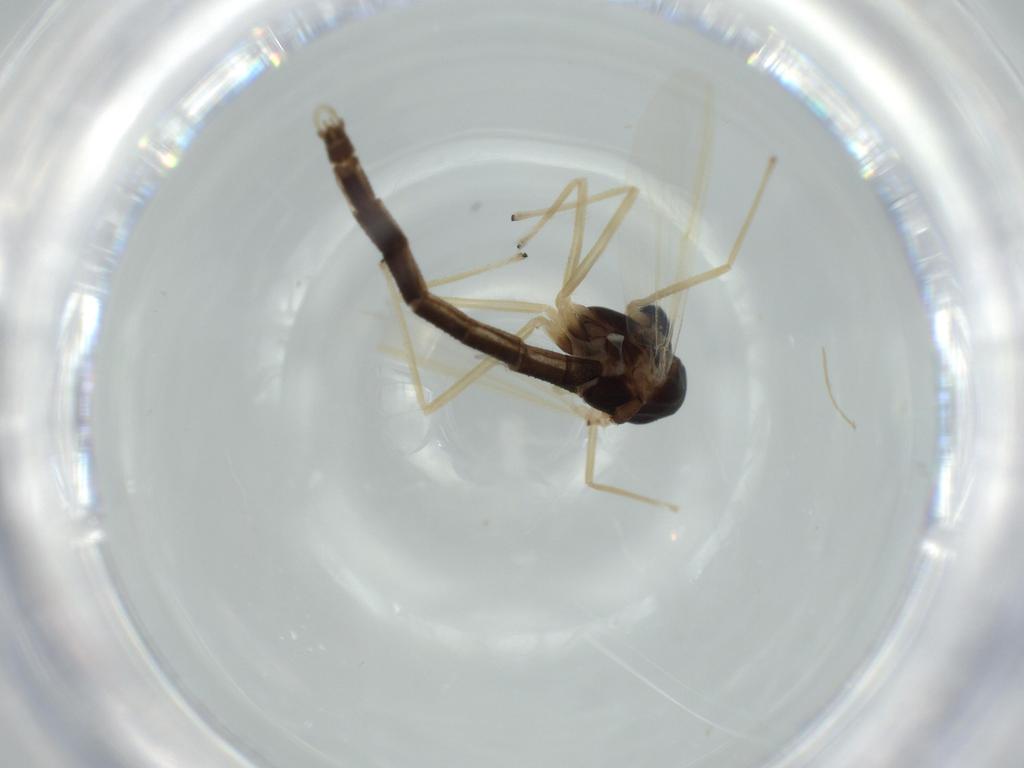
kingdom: Animalia
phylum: Arthropoda
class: Insecta
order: Diptera
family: Chironomidae
